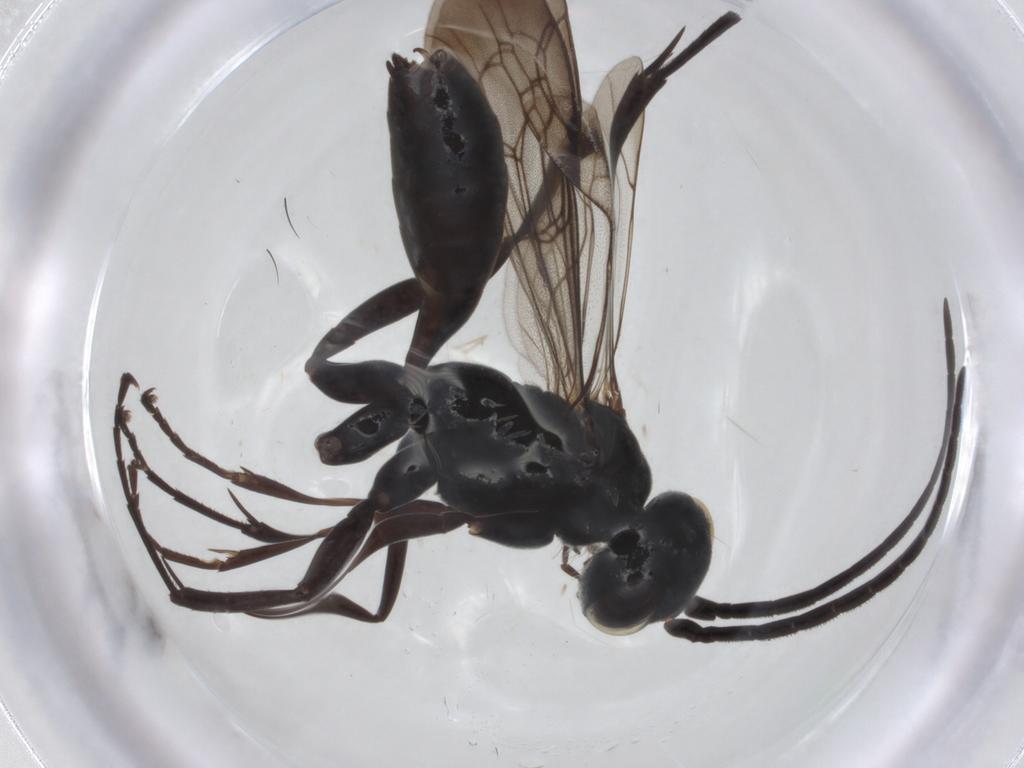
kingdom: Animalia
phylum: Arthropoda
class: Insecta
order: Hymenoptera
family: Pompilidae
